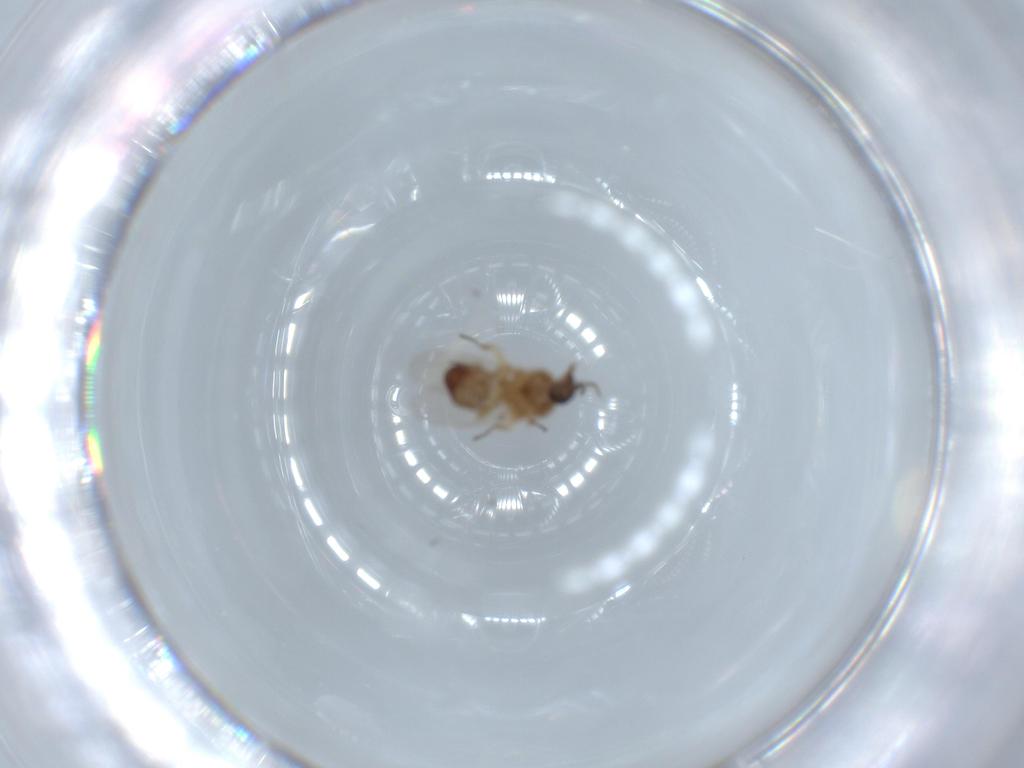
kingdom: Animalia
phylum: Arthropoda
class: Insecta
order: Diptera
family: Ceratopogonidae
